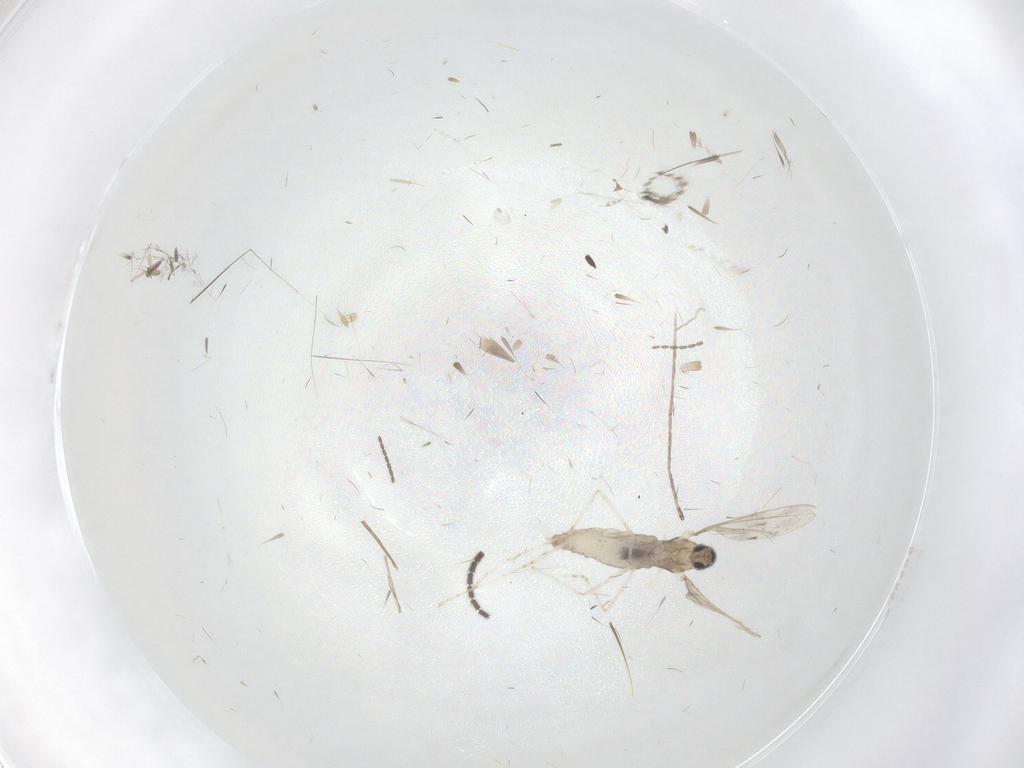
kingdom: Animalia
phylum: Arthropoda
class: Insecta
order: Diptera
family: Cecidomyiidae
